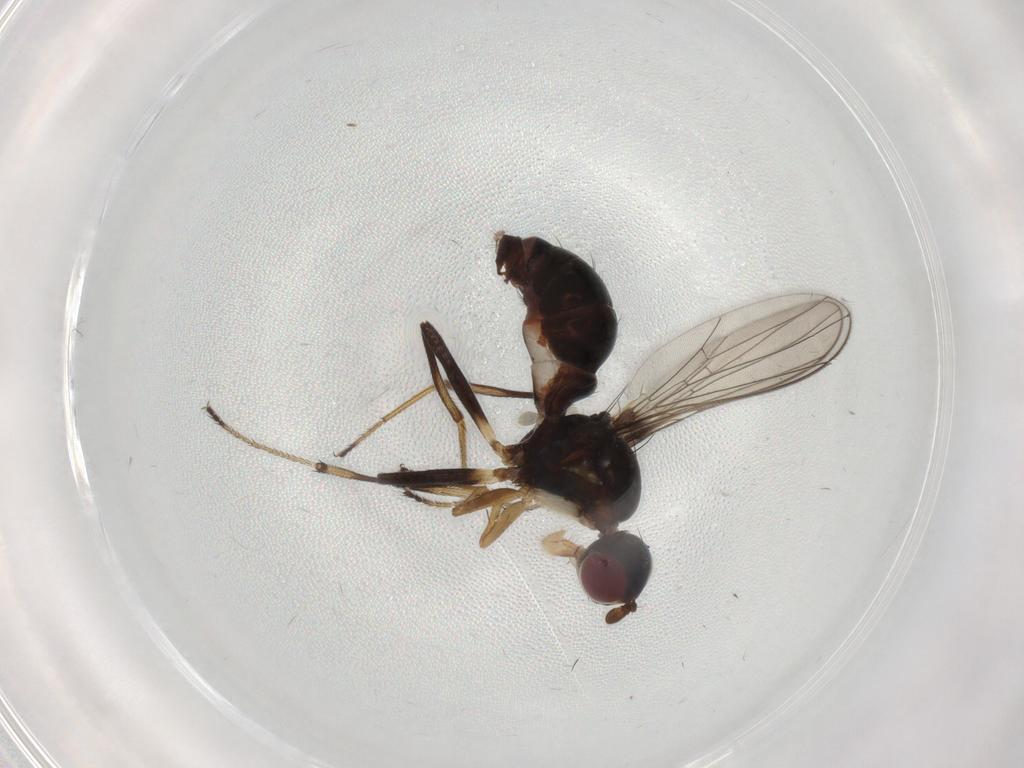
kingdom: Animalia
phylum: Arthropoda
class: Insecta
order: Diptera
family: Sepsidae
